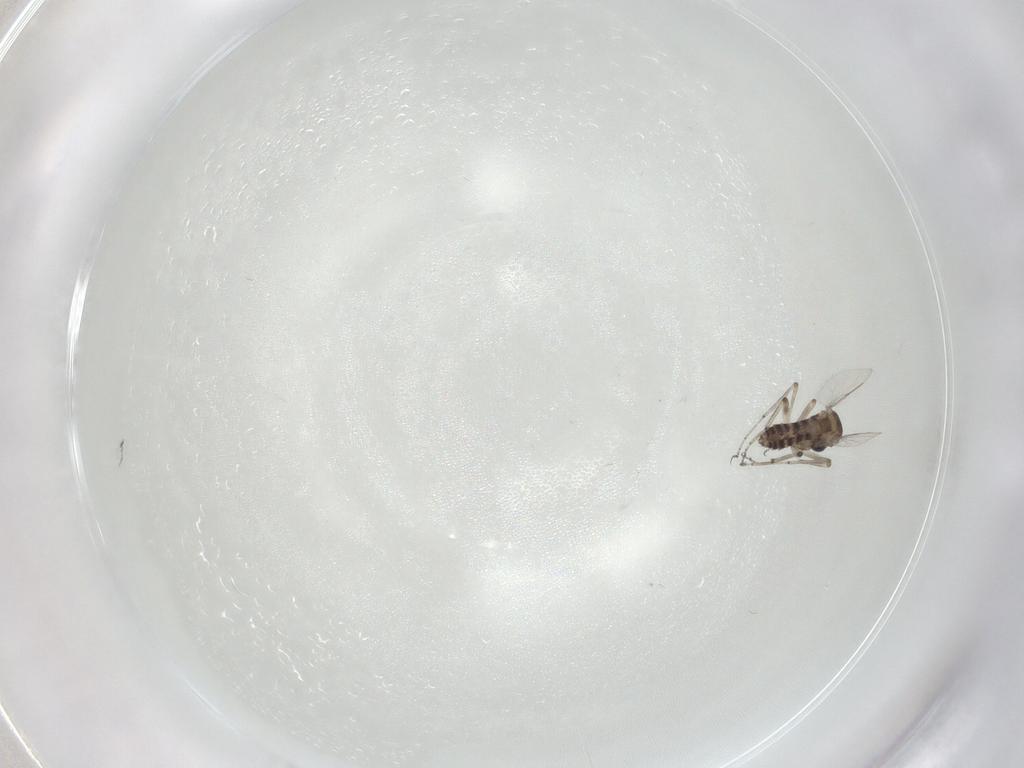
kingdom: Animalia
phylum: Arthropoda
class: Insecta
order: Diptera
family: Ceratopogonidae
